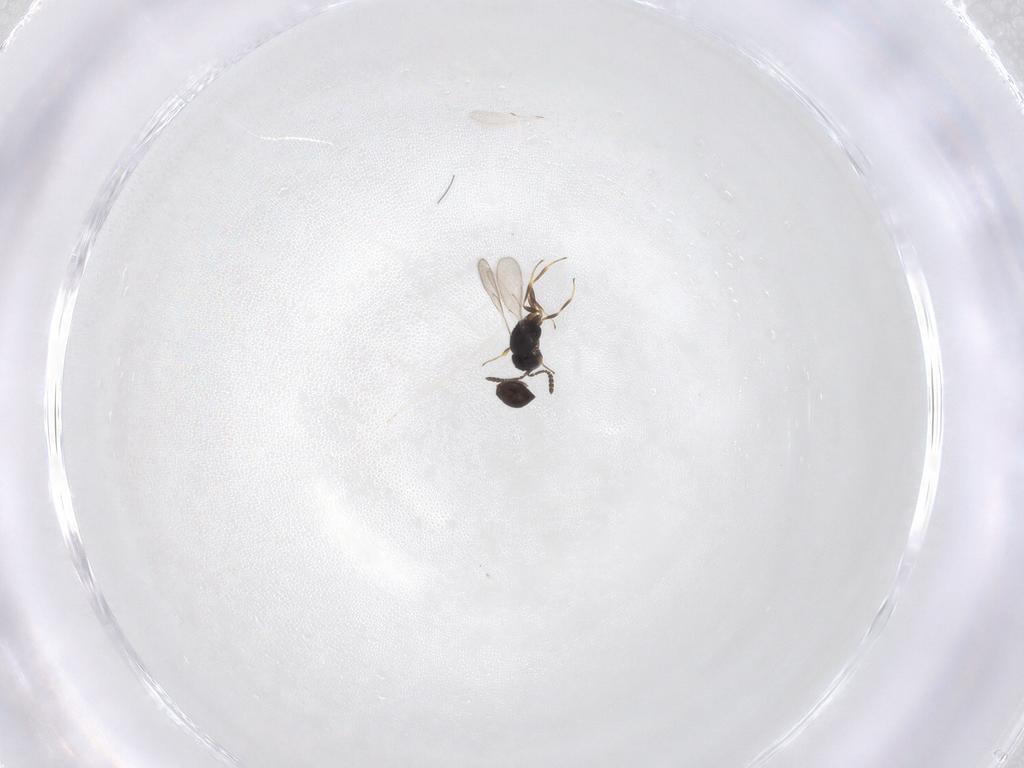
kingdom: Animalia
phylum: Arthropoda
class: Insecta
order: Hymenoptera
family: Scelionidae
